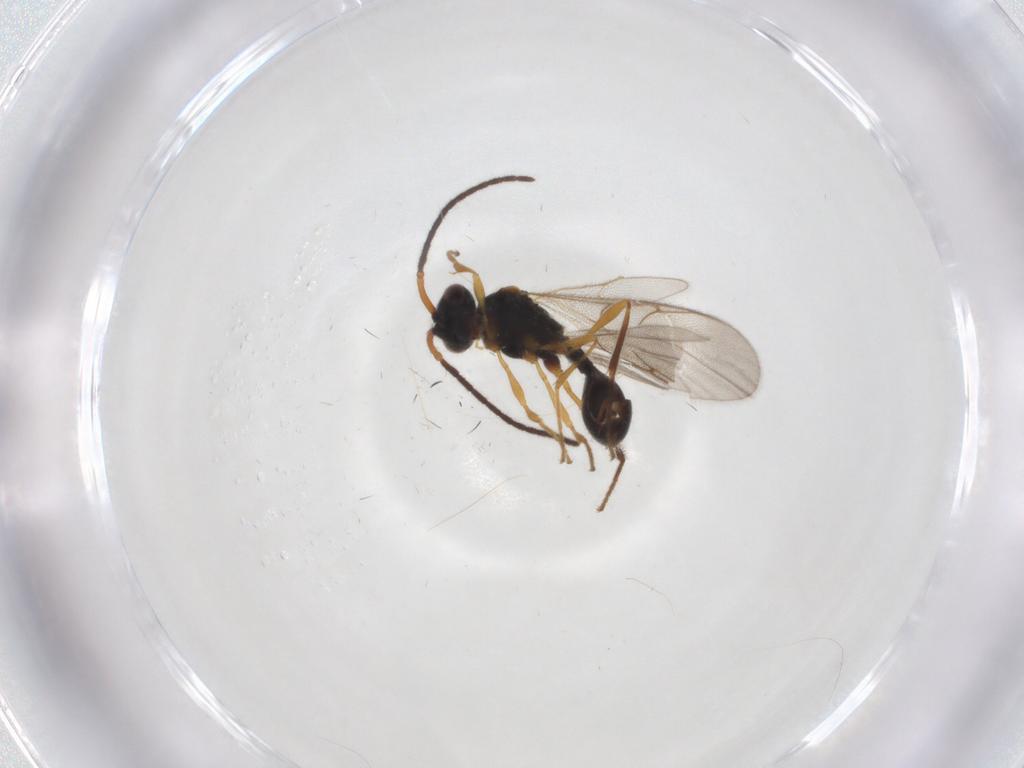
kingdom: Animalia
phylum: Arthropoda
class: Insecta
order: Hymenoptera
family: Diapriidae
